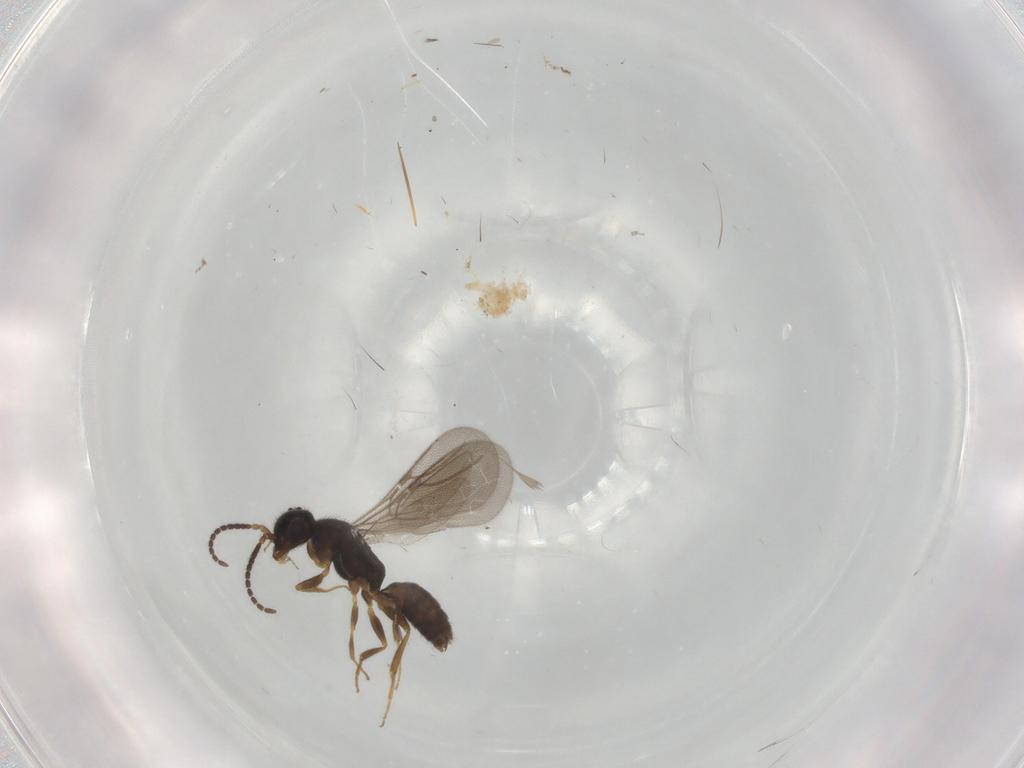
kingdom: Animalia
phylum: Arthropoda
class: Insecta
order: Hymenoptera
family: Bethylidae
